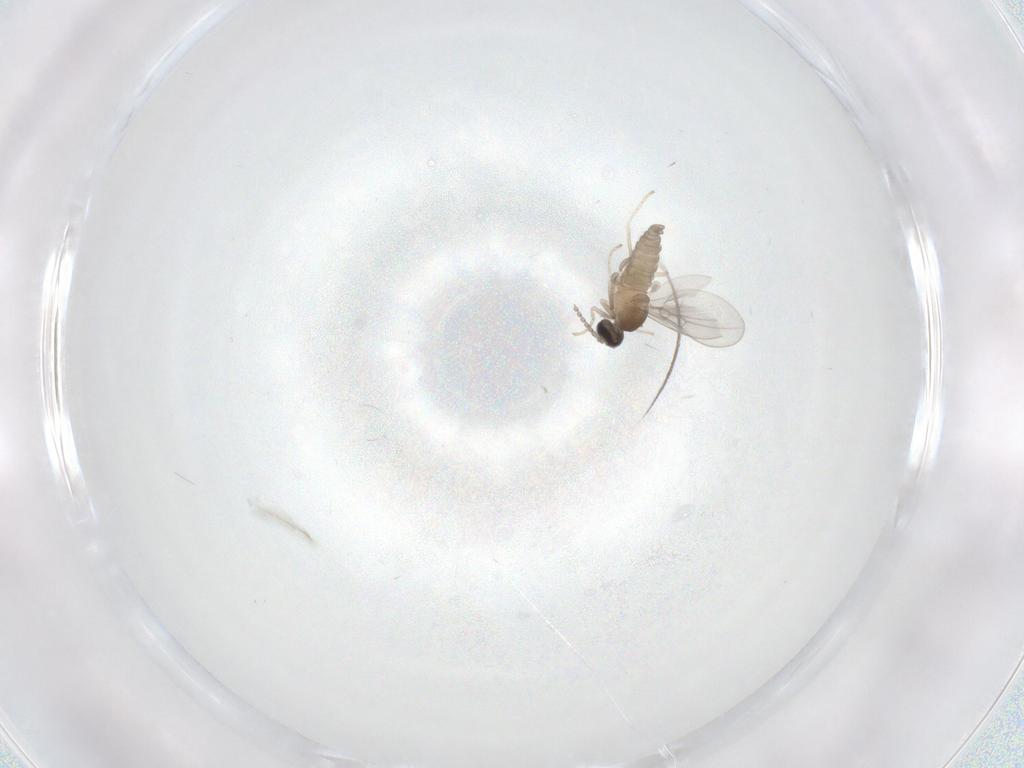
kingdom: Animalia
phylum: Arthropoda
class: Insecta
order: Diptera
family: Cecidomyiidae
